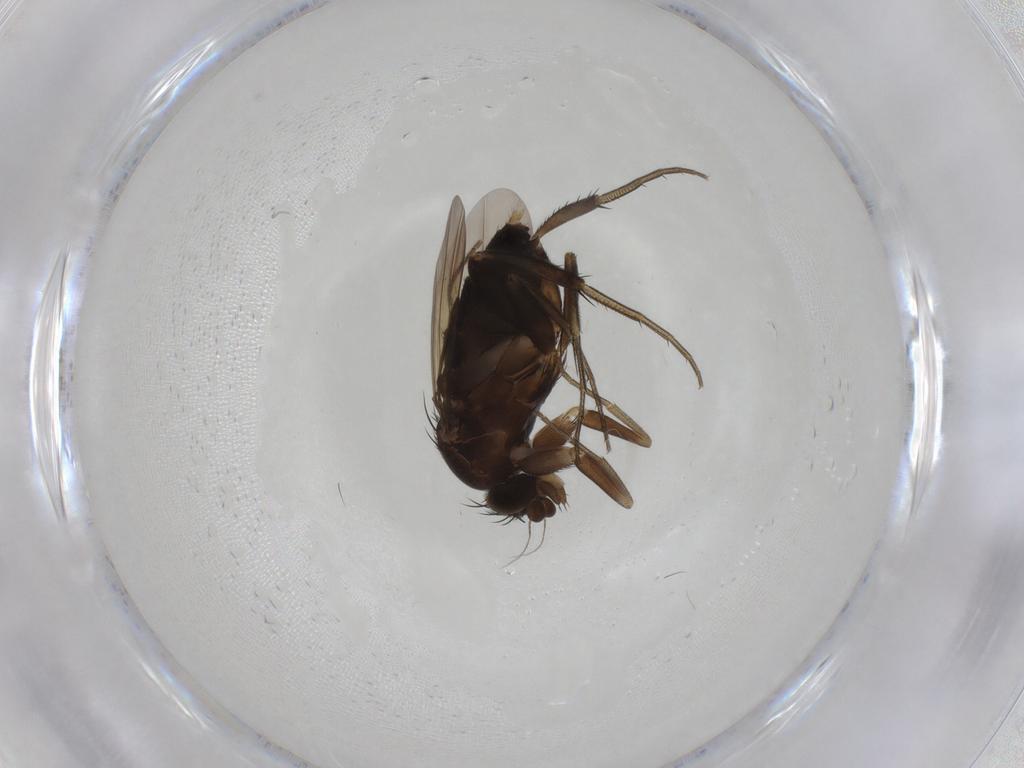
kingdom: Animalia
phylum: Arthropoda
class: Insecta
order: Diptera
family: Phoridae
